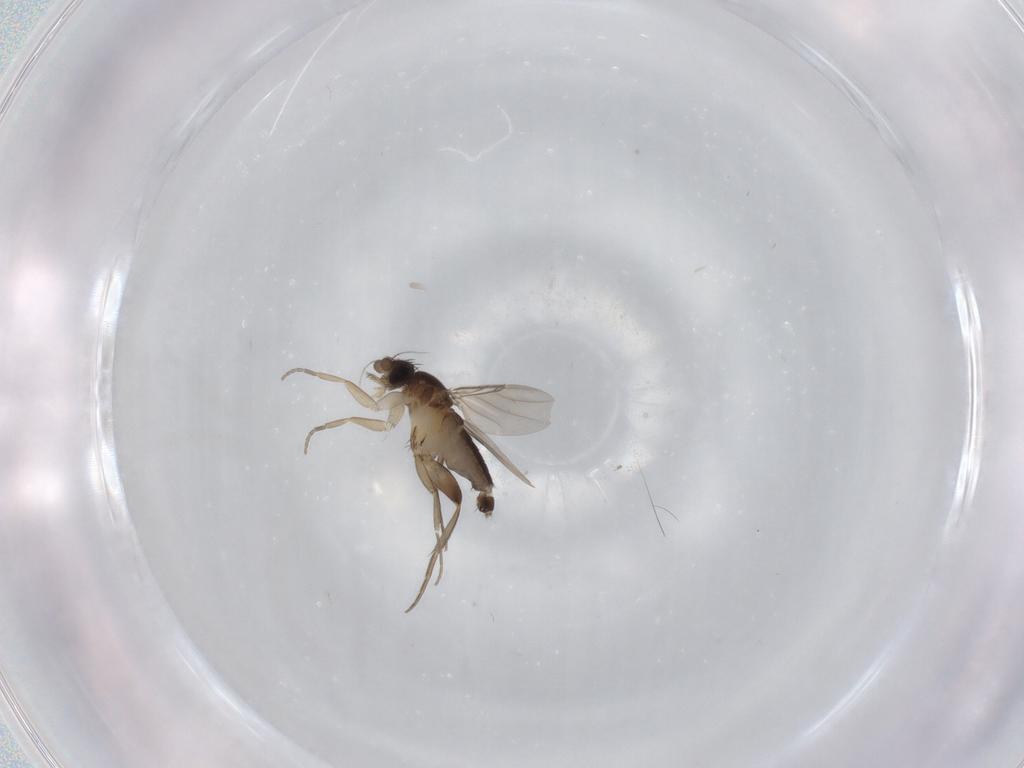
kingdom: Animalia
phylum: Arthropoda
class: Insecta
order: Diptera
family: Phoridae
